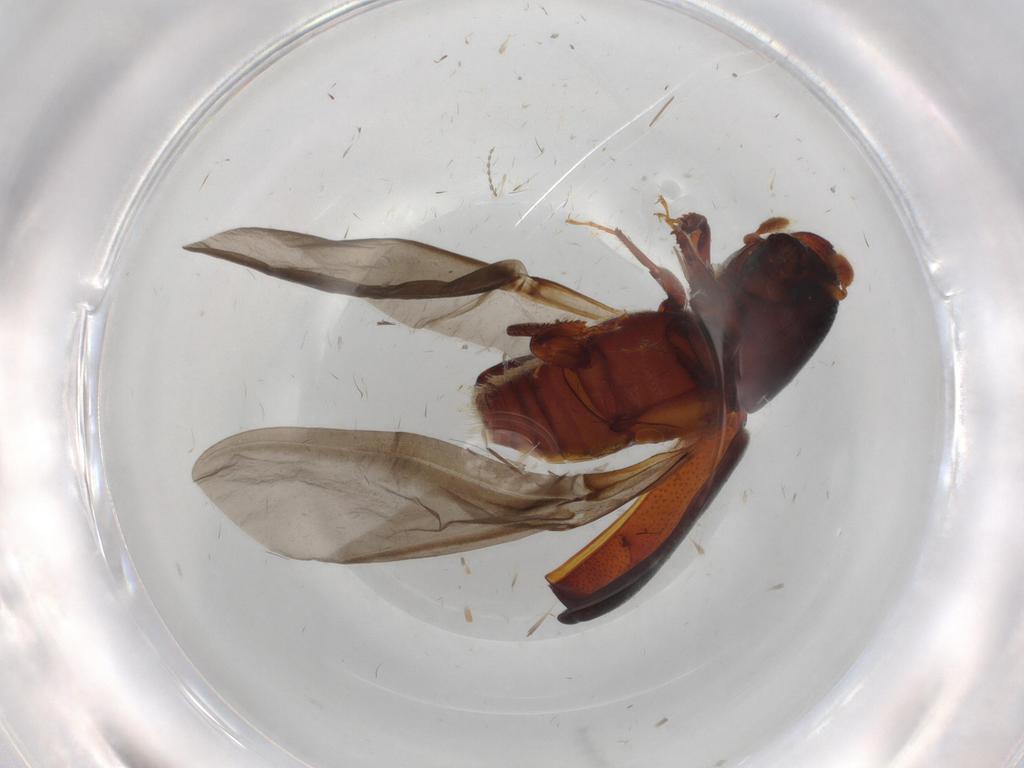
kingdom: Animalia
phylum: Arthropoda
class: Insecta
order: Coleoptera
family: Curculionidae
